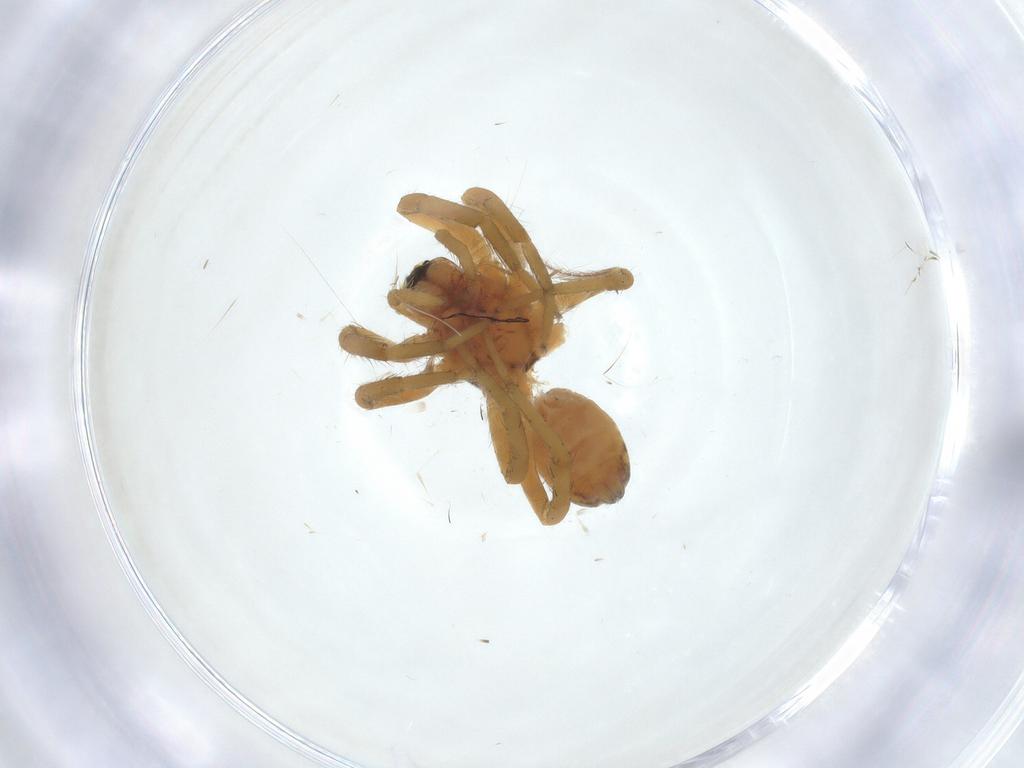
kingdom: Animalia
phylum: Arthropoda
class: Arachnida
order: Araneae
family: Lycosidae
